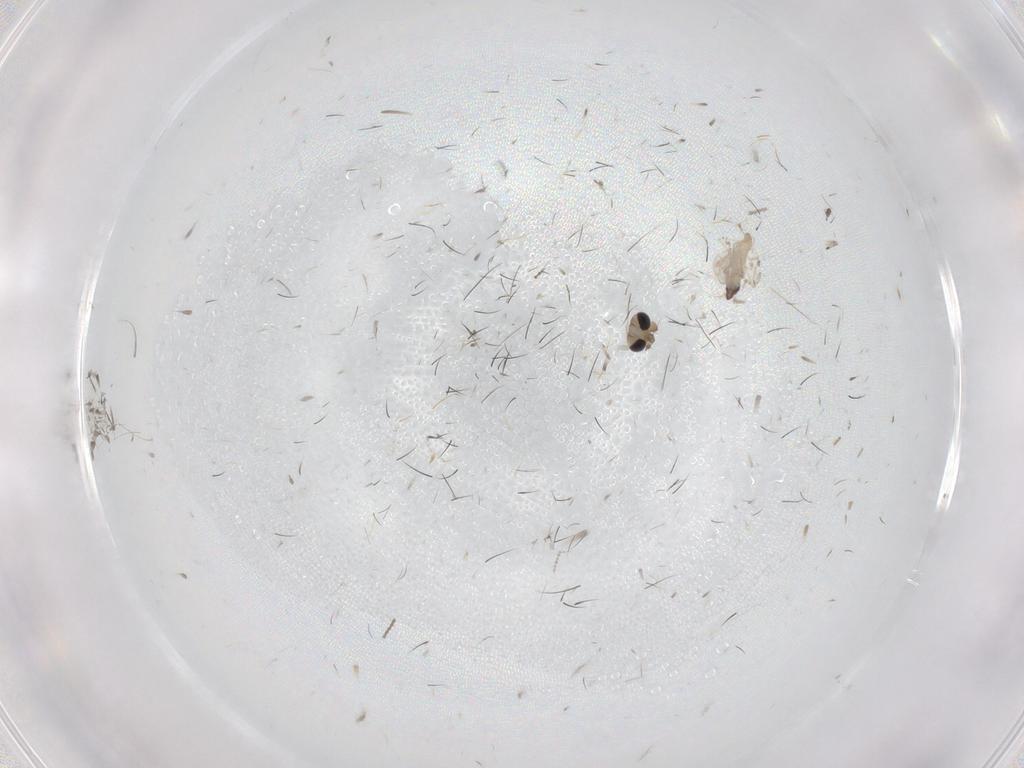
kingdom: Animalia
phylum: Arthropoda
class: Insecta
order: Diptera
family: Cecidomyiidae
